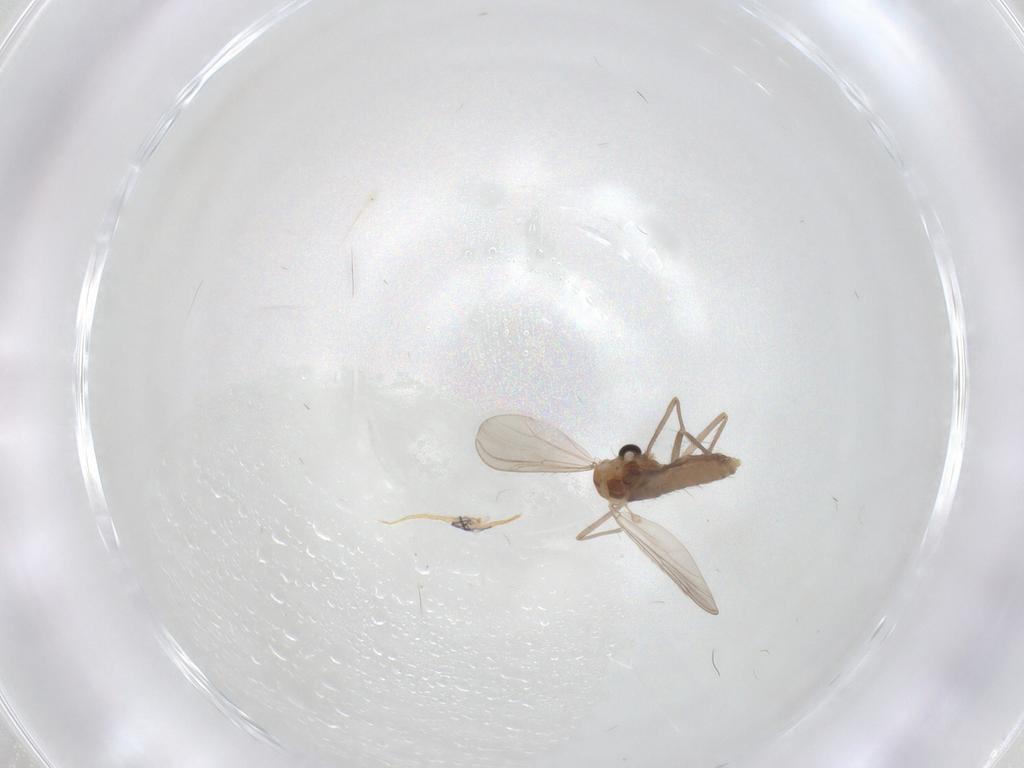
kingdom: Animalia
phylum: Arthropoda
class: Insecta
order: Diptera
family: Chironomidae
